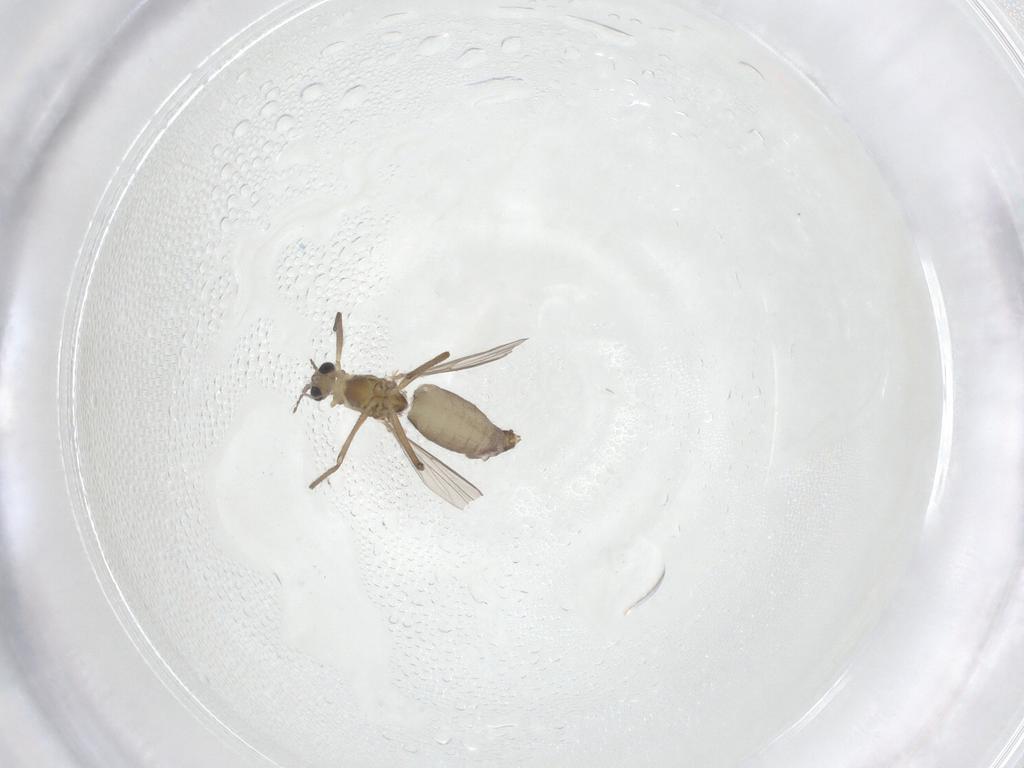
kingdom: Animalia
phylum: Arthropoda
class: Insecta
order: Diptera
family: Chironomidae
